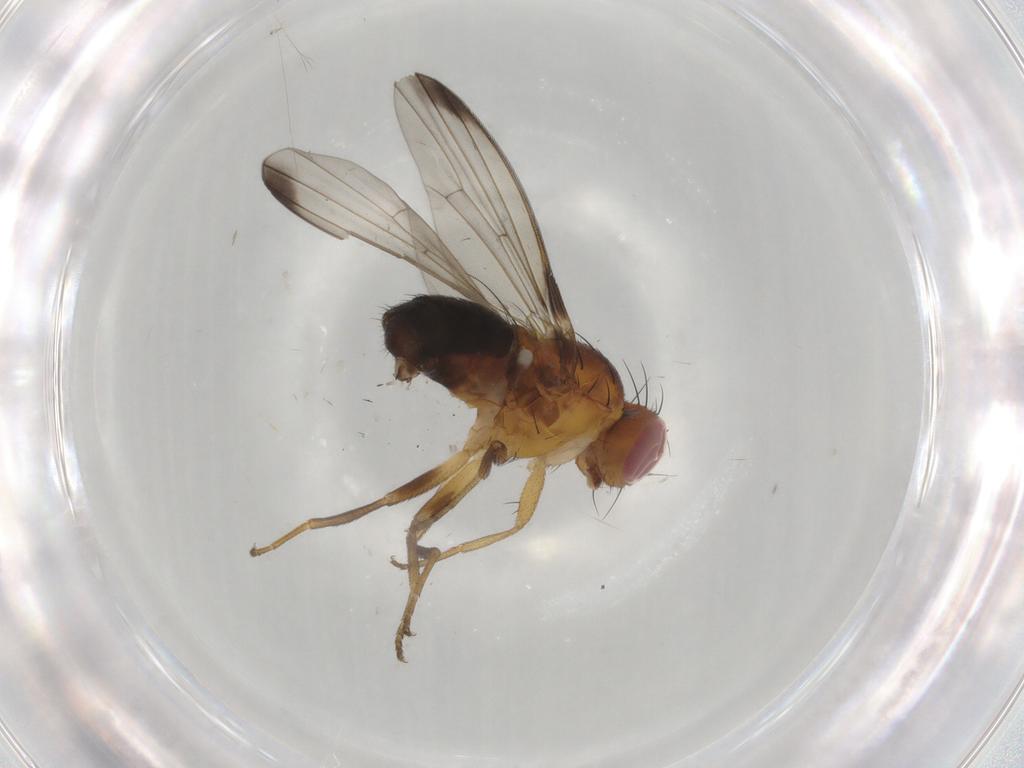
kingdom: Animalia
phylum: Arthropoda
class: Insecta
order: Diptera
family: Piophilidae
